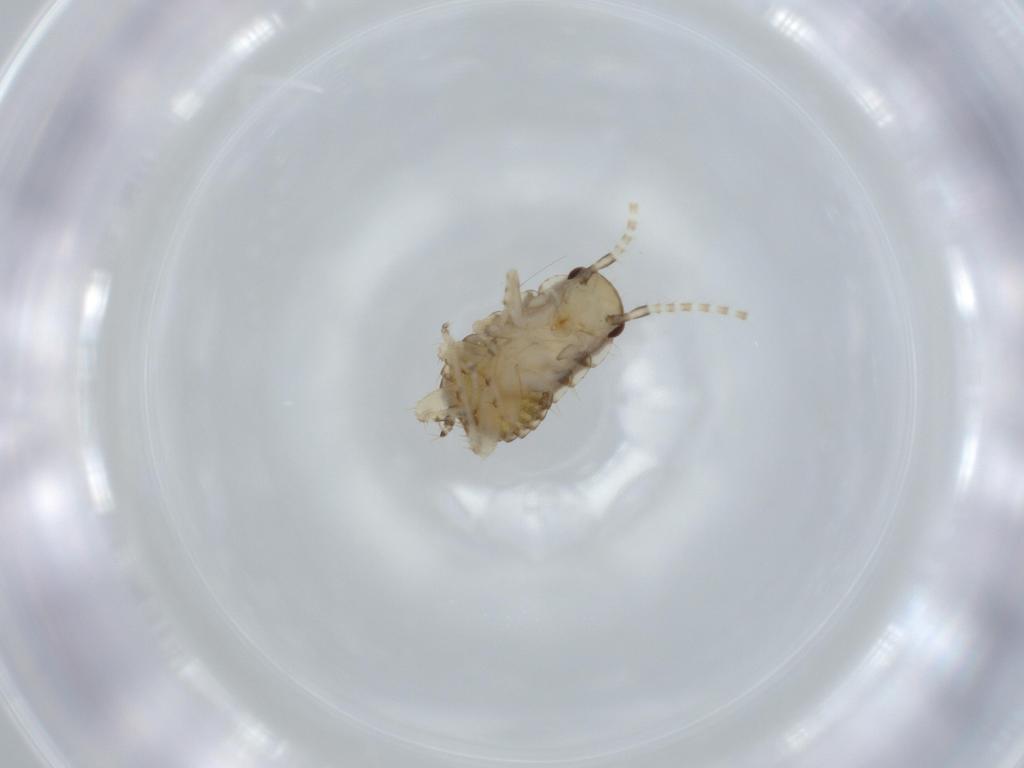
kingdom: Animalia
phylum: Arthropoda
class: Insecta
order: Blattodea
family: Ectobiidae
